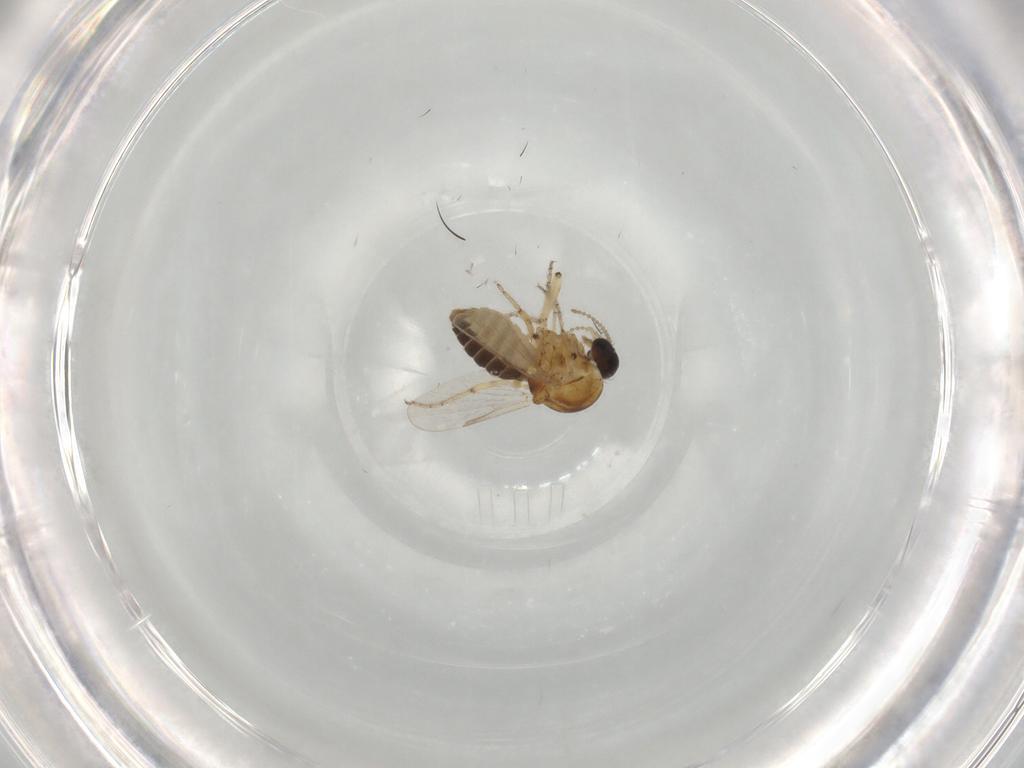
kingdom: Animalia
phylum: Arthropoda
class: Insecta
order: Diptera
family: Ceratopogonidae
